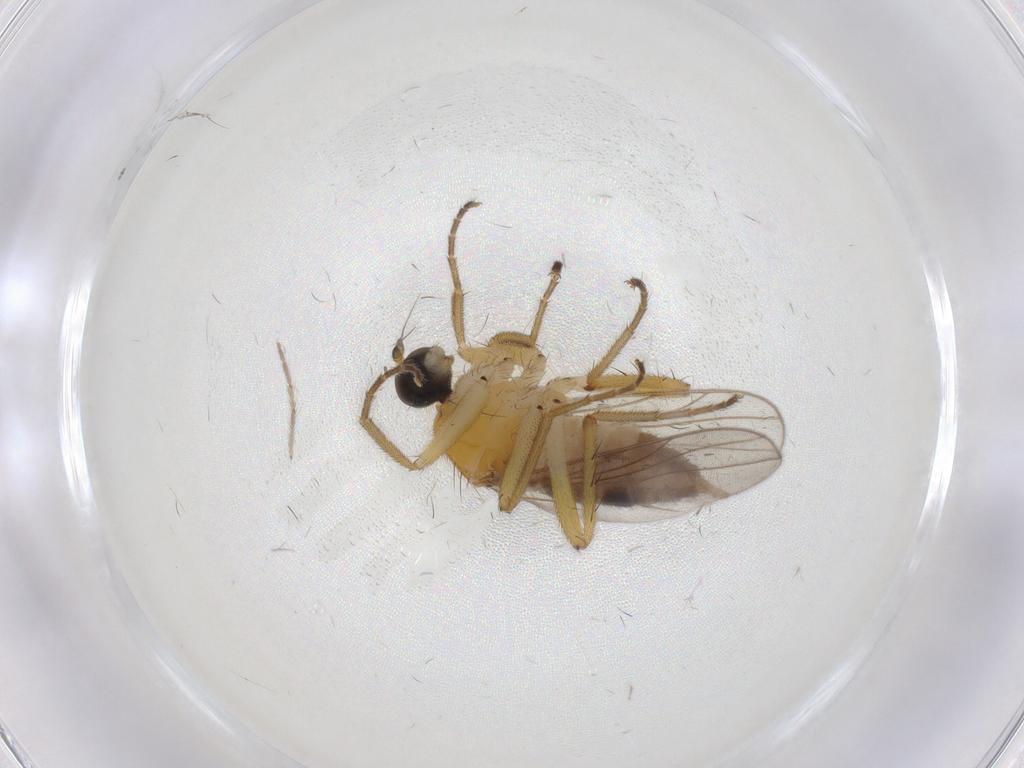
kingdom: Animalia
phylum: Arthropoda
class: Insecta
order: Diptera
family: Hybotidae
